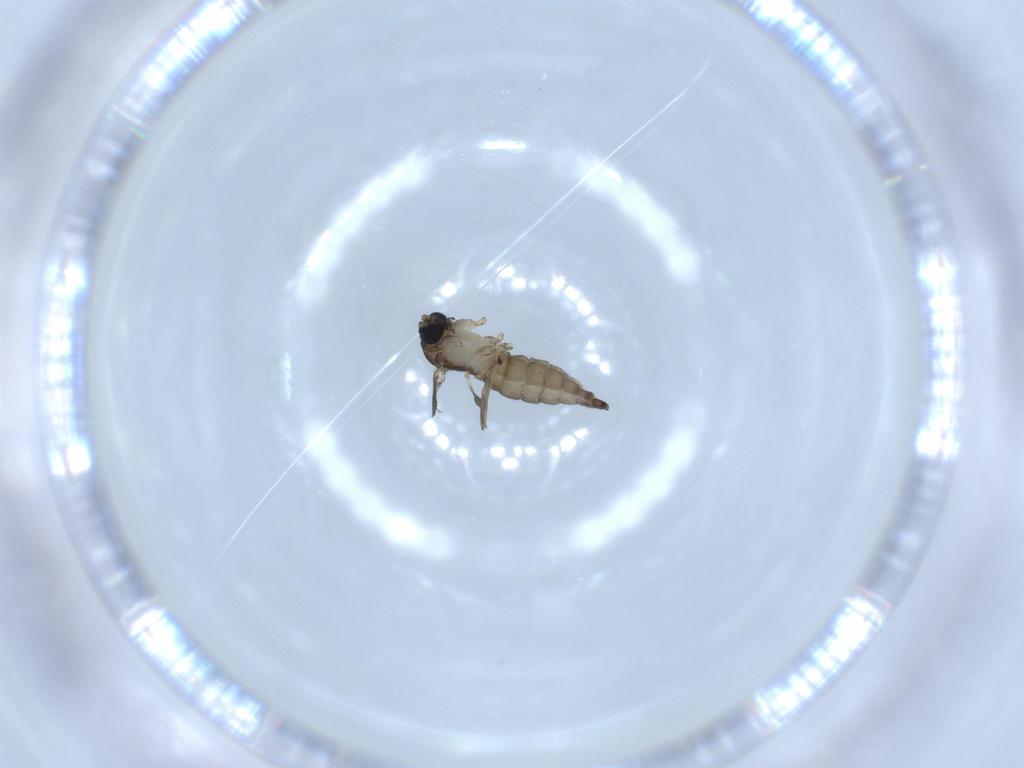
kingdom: Animalia
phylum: Arthropoda
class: Insecta
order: Diptera
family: Sciaridae
